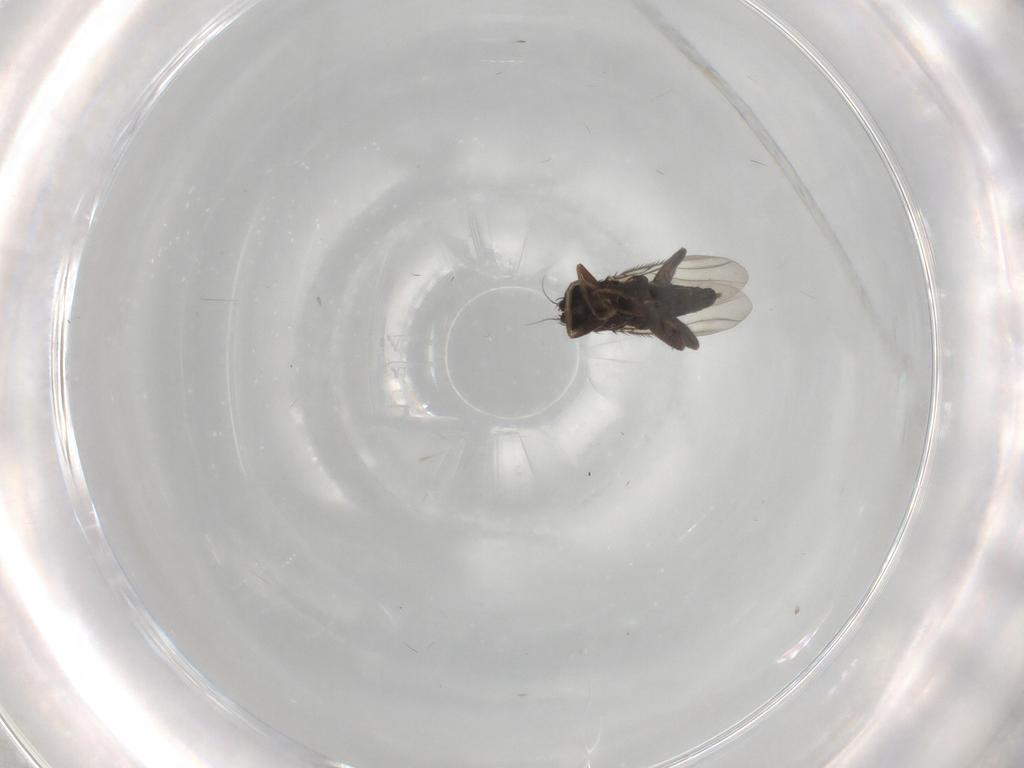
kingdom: Animalia
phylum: Arthropoda
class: Insecta
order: Diptera
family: Phoridae
